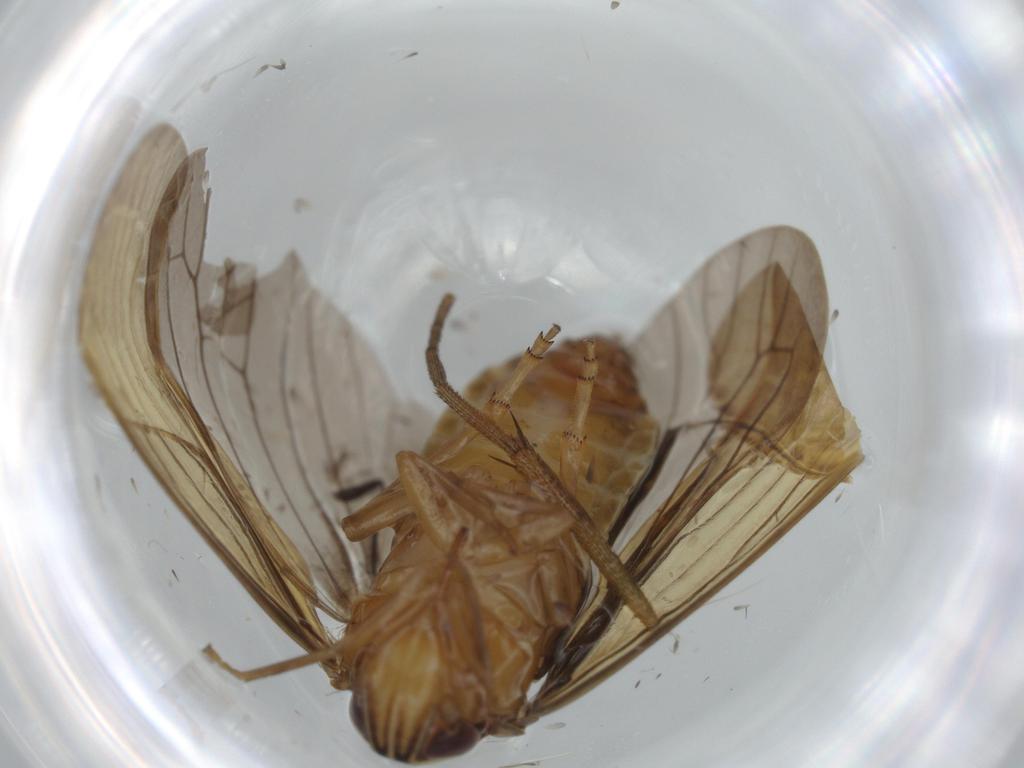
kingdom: Animalia
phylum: Arthropoda
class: Insecta
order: Hemiptera
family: Achilidae
